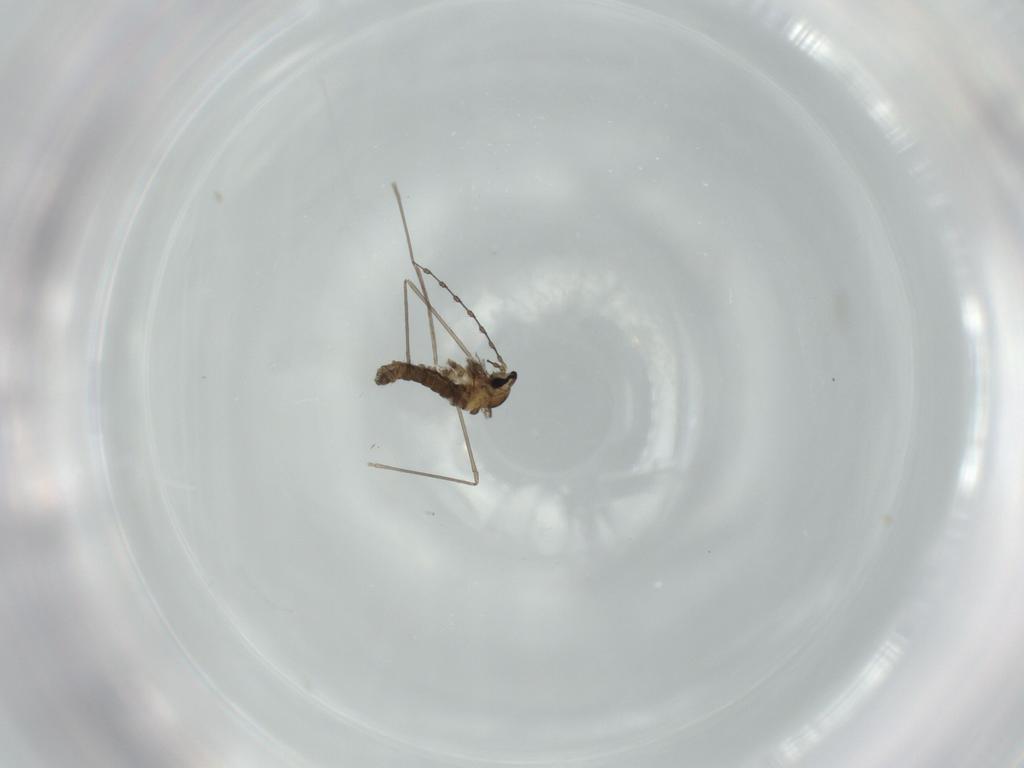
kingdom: Animalia
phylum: Arthropoda
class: Insecta
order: Diptera
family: Cecidomyiidae
